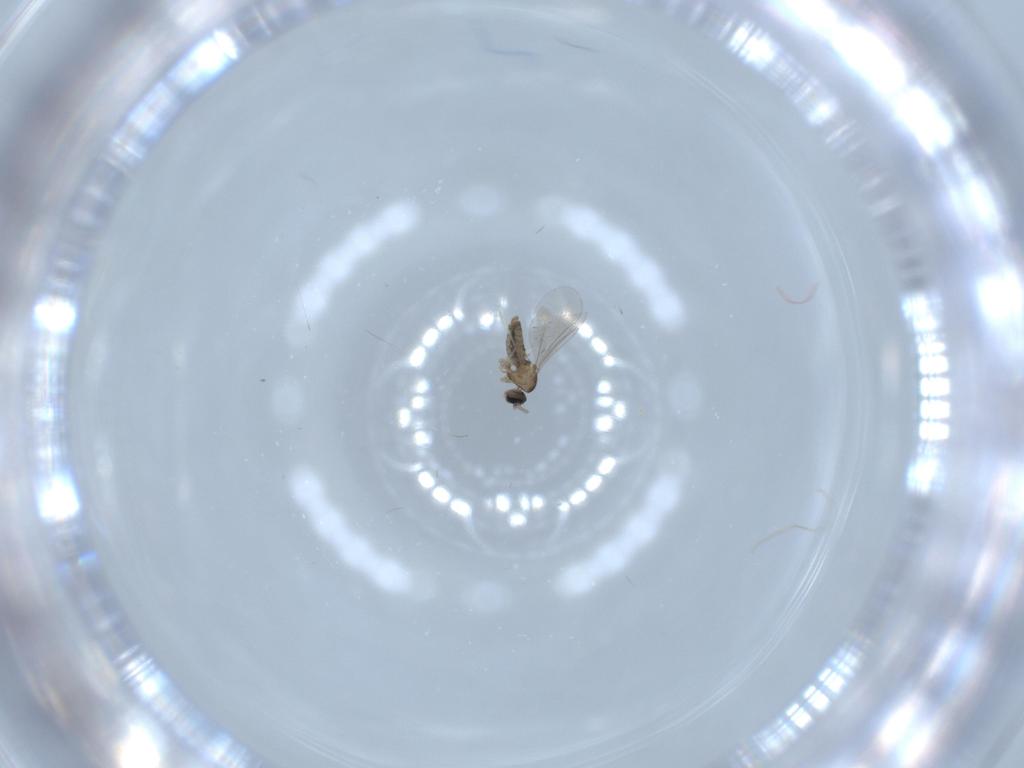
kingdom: Animalia
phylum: Arthropoda
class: Insecta
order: Diptera
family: Cecidomyiidae
